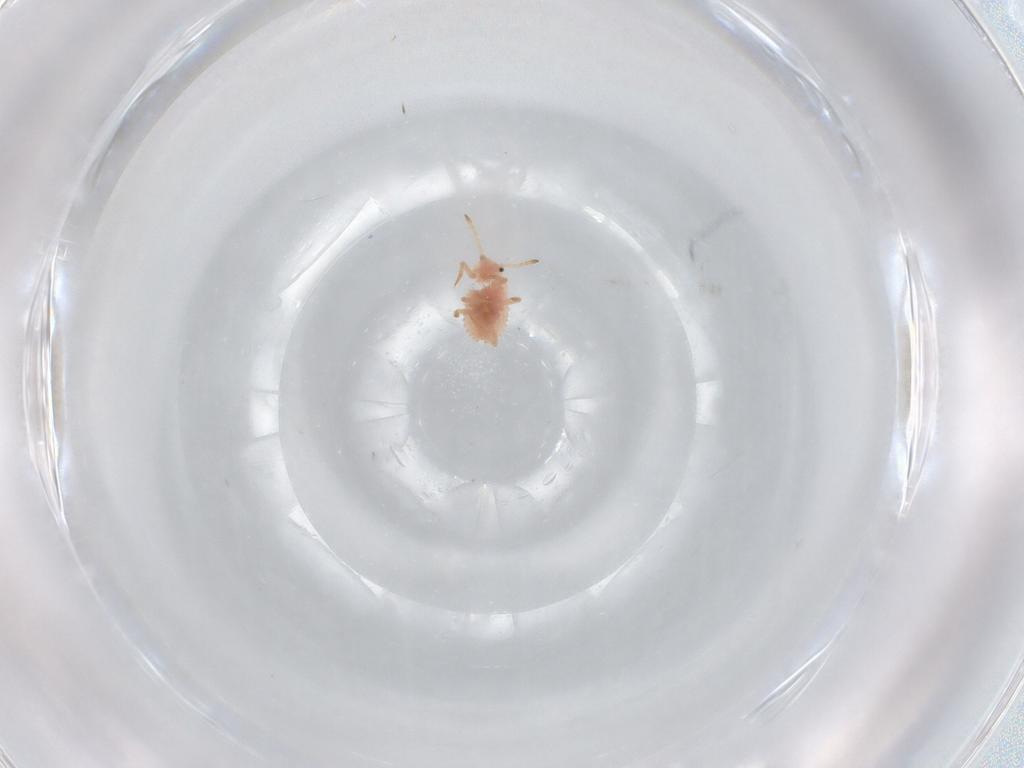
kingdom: Animalia
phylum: Arthropoda
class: Insecta
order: Hemiptera
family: Coccoidea_incertae_sedis
